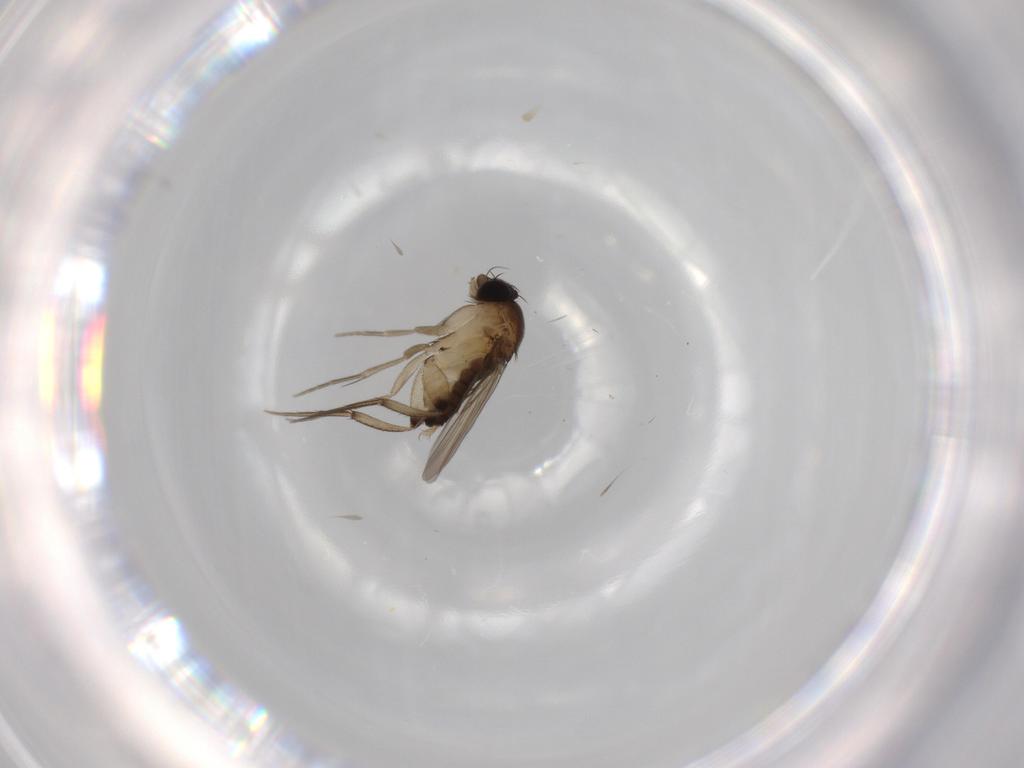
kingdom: Animalia
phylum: Arthropoda
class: Insecta
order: Diptera
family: Phoridae
